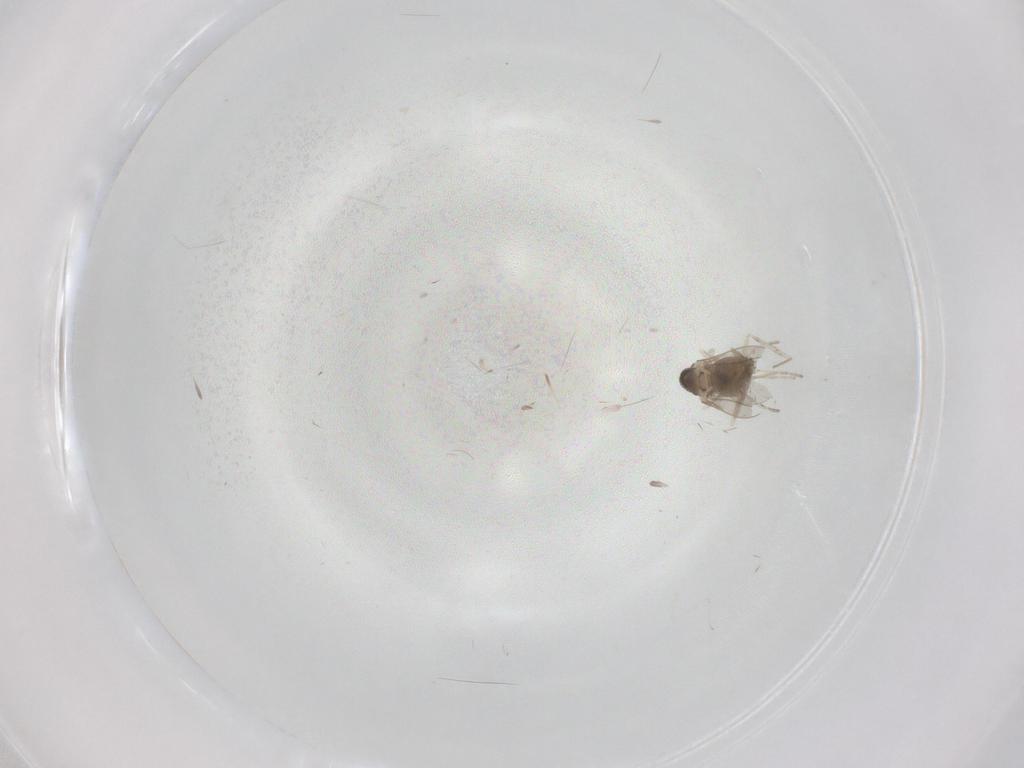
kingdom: Animalia
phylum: Arthropoda
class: Insecta
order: Diptera
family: Cecidomyiidae
